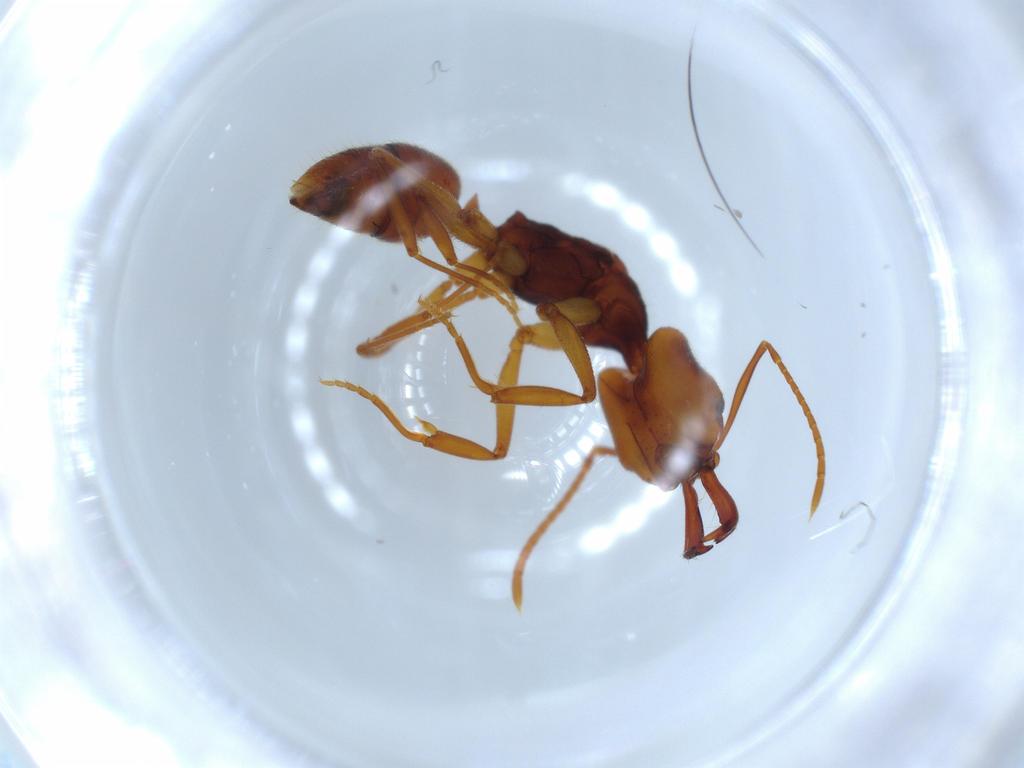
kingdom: Animalia
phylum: Arthropoda
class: Insecta
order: Hymenoptera
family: Formicidae
